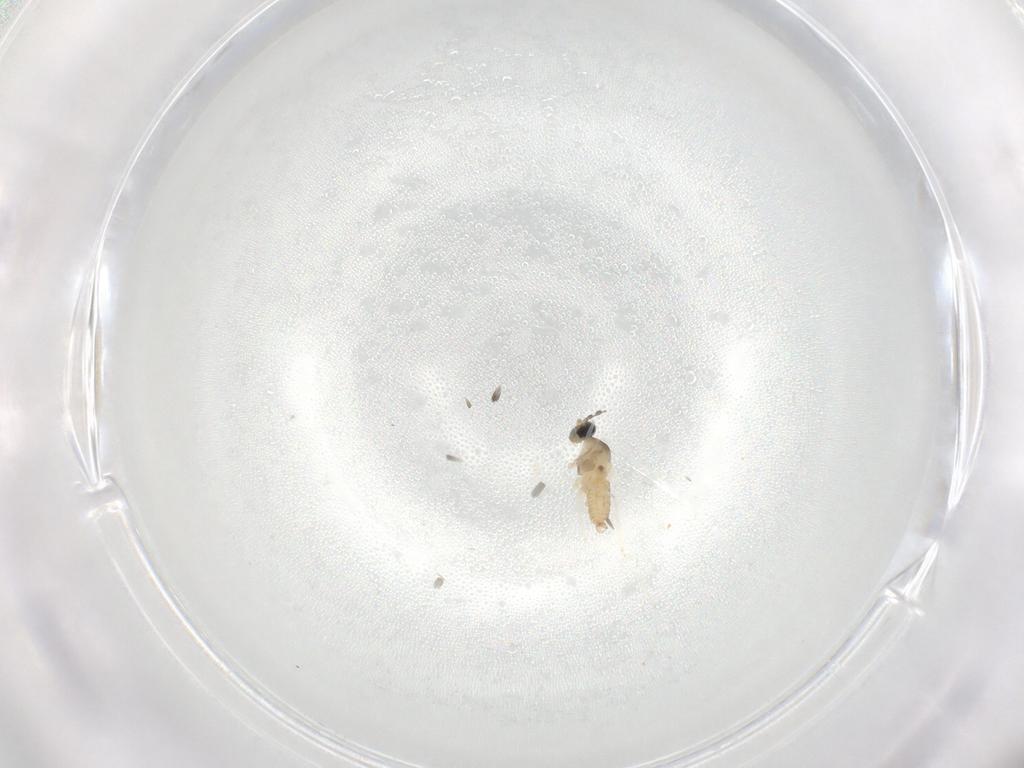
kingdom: Animalia
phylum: Arthropoda
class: Insecta
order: Diptera
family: Cecidomyiidae
